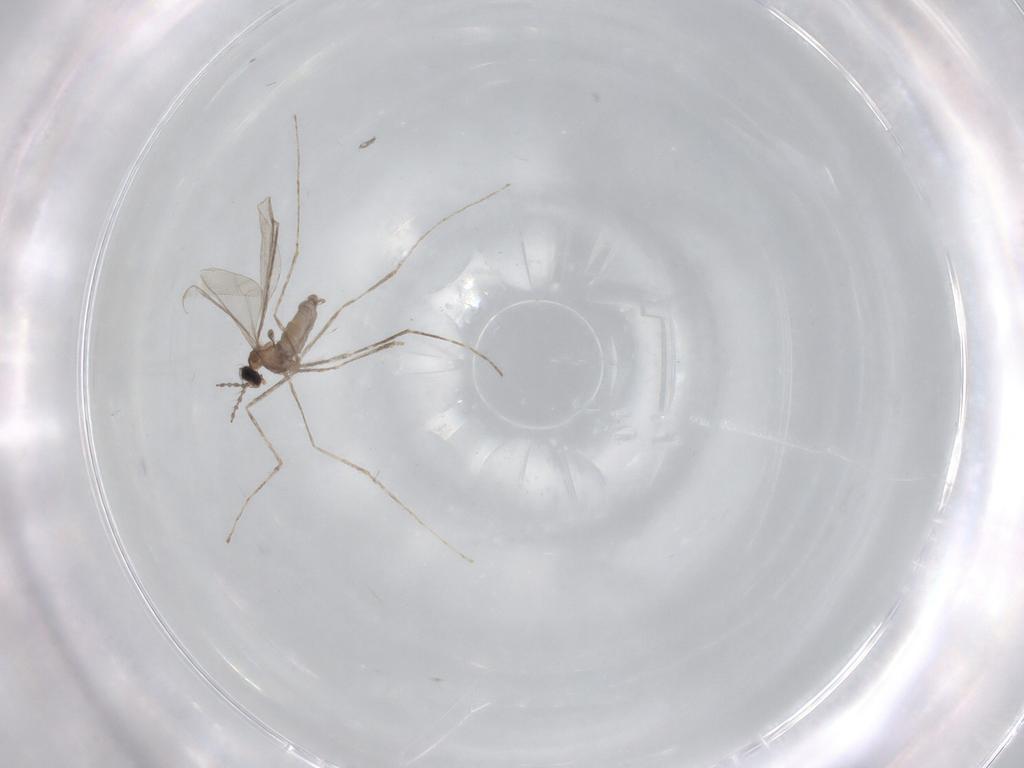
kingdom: Animalia
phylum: Arthropoda
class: Insecta
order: Diptera
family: Cecidomyiidae
